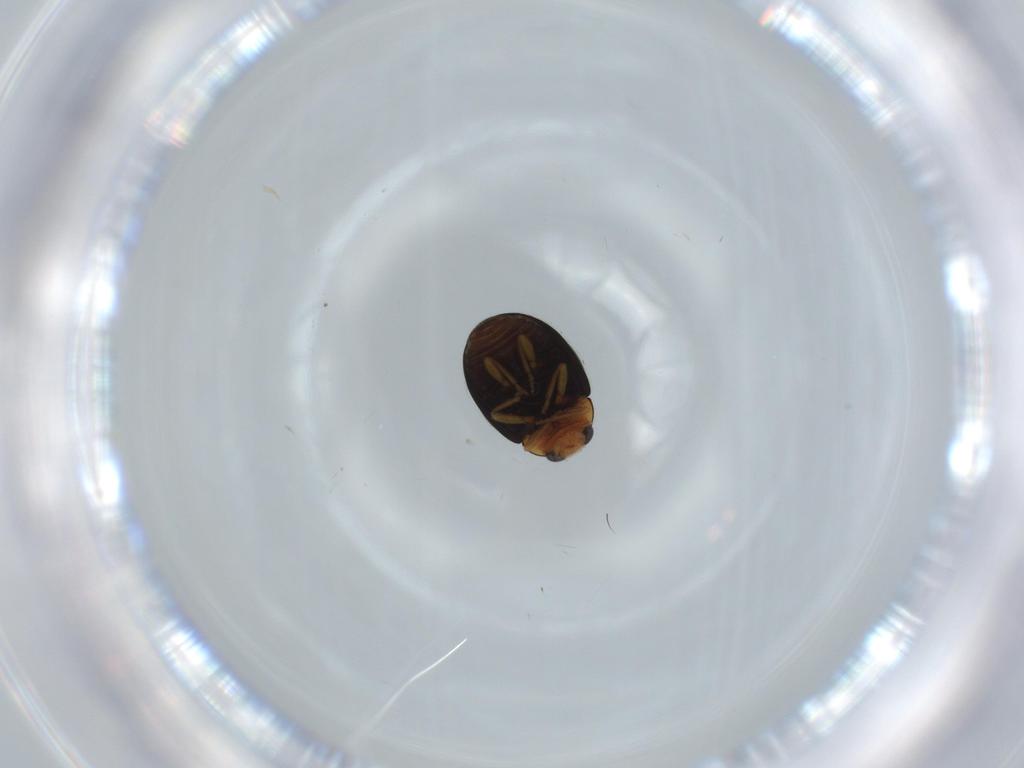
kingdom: Animalia
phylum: Arthropoda
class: Insecta
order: Coleoptera
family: Coccinellidae
